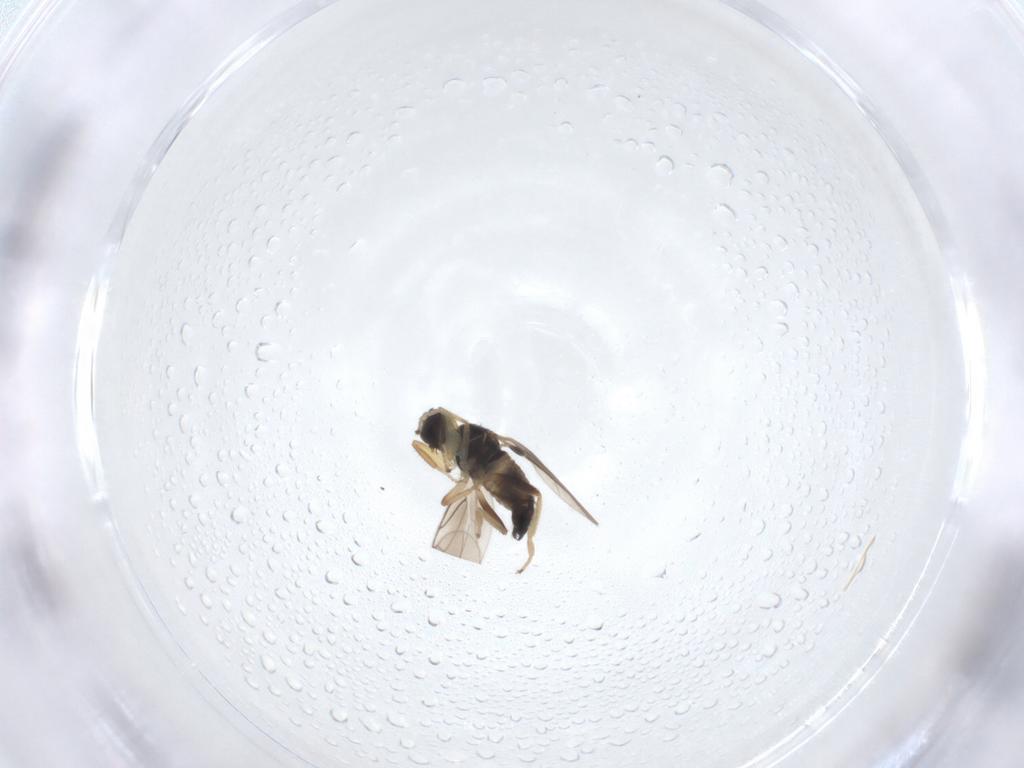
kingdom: Animalia
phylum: Arthropoda
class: Insecta
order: Diptera
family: Hybotidae
